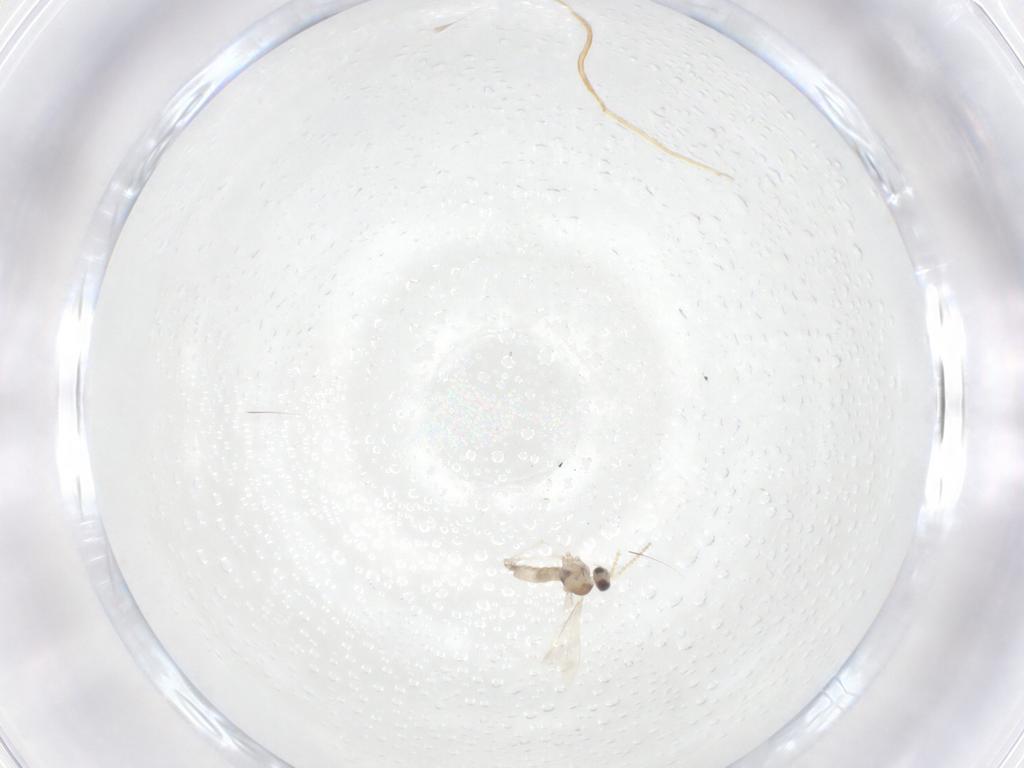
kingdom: Animalia
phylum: Arthropoda
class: Insecta
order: Diptera
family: Cecidomyiidae
